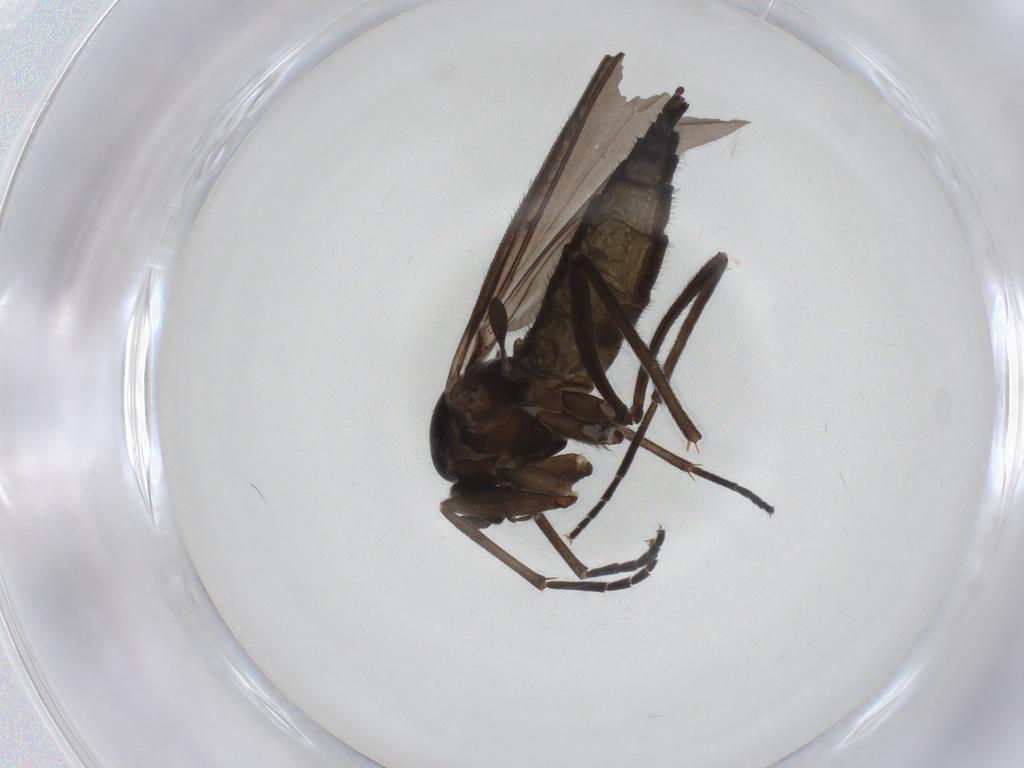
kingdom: Animalia
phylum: Arthropoda
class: Insecta
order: Diptera
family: Sciaridae
